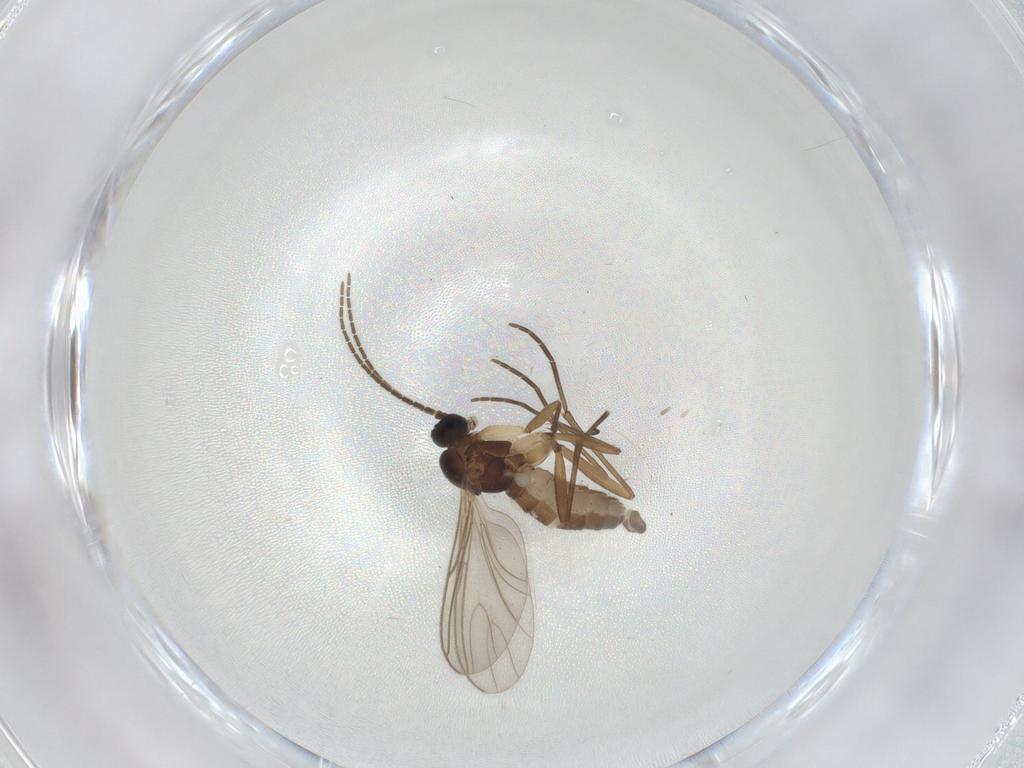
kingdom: Animalia
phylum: Arthropoda
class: Insecta
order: Diptera
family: Sciaridae
